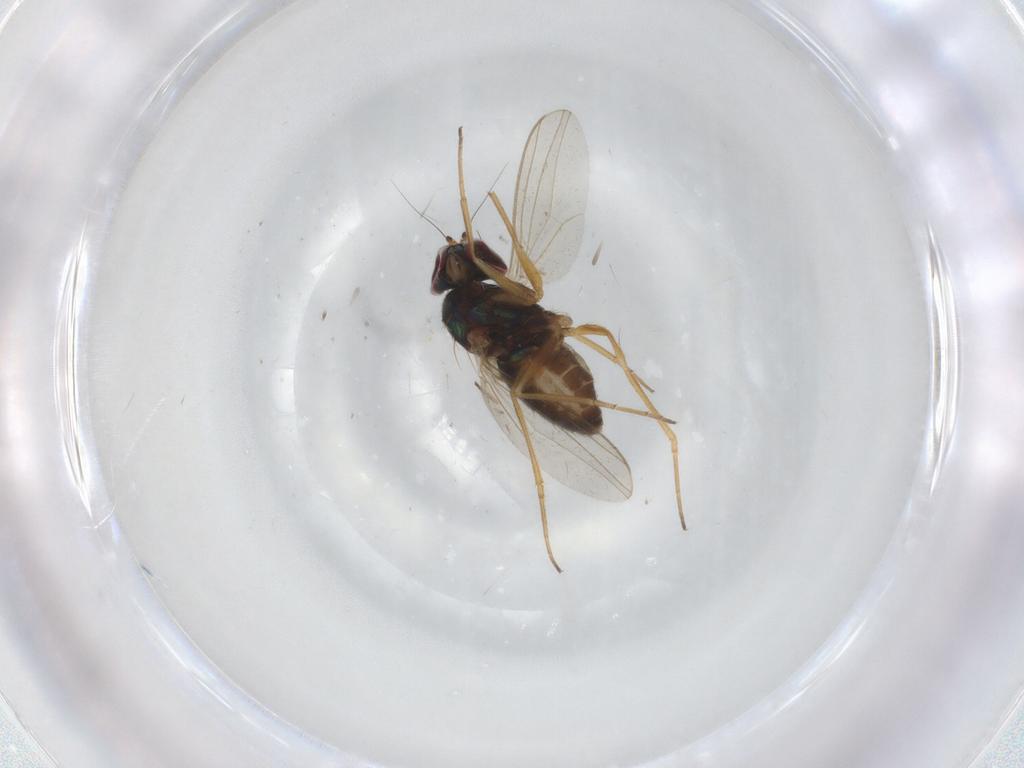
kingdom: Animalia
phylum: Arthropoda
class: Insecta
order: Diptera
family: Dolichopodidae
